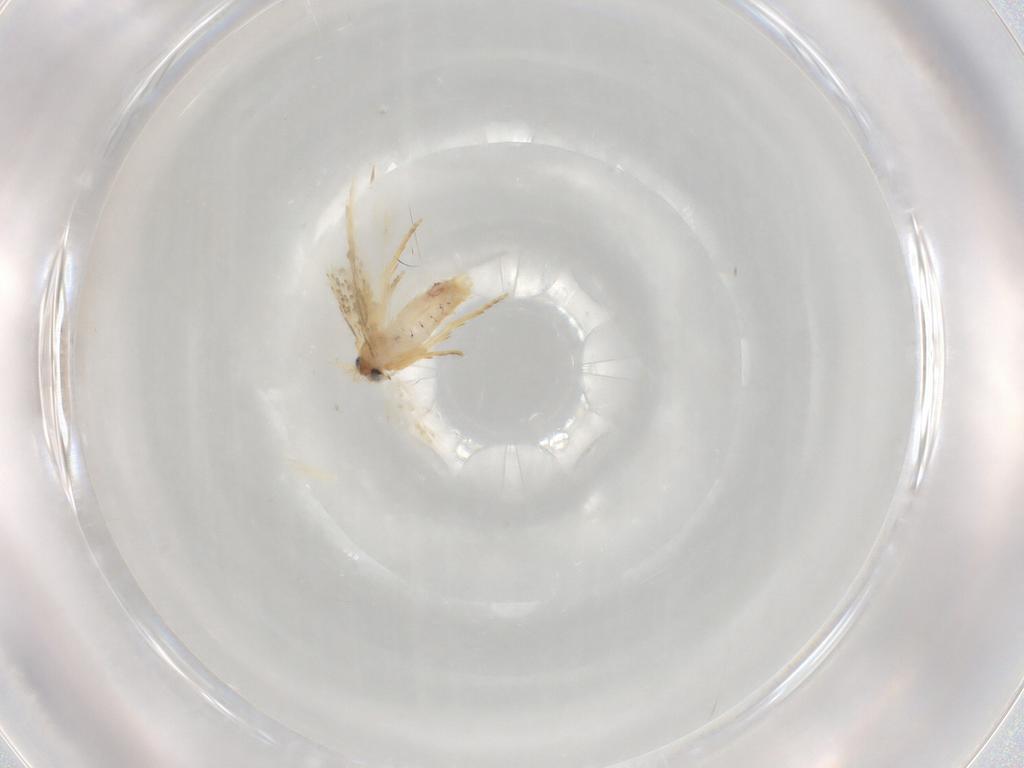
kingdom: Animalia
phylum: Arthropoda
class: Insecta
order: Lepidoptera
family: Nepticulidae
